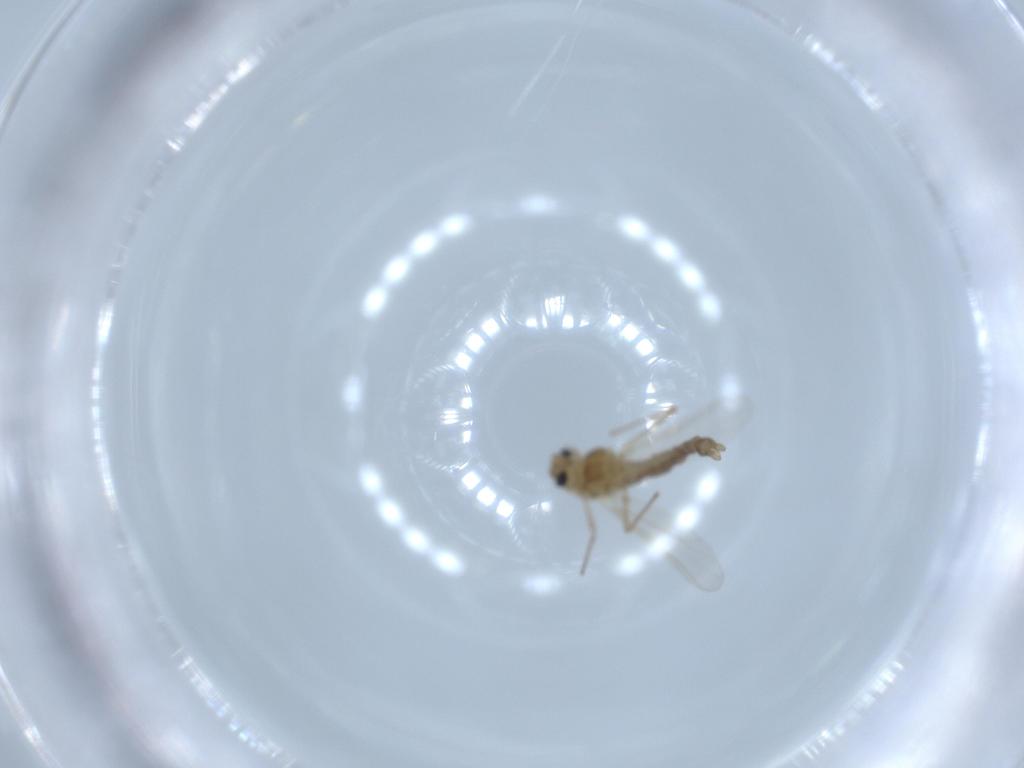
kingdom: Animalia
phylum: Arthropoda
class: Insecta
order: Diptera
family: Chironomidae
